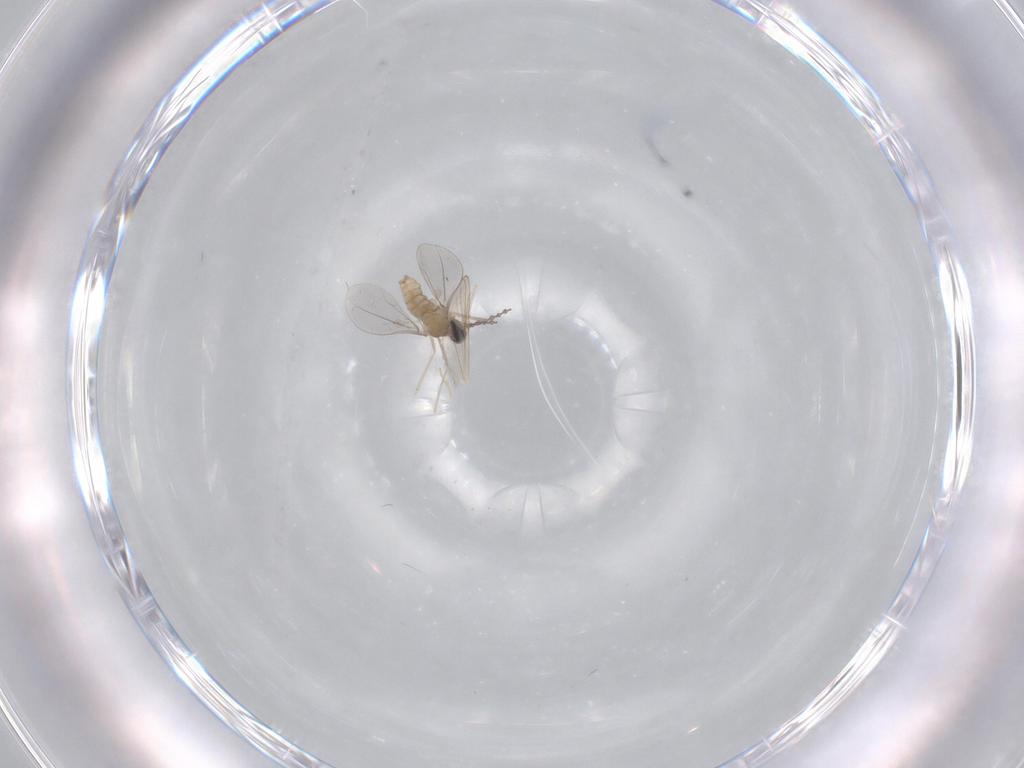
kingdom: Animalia
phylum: Arthropoda
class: Insecta
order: Diptera
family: Cecidomyiidae
